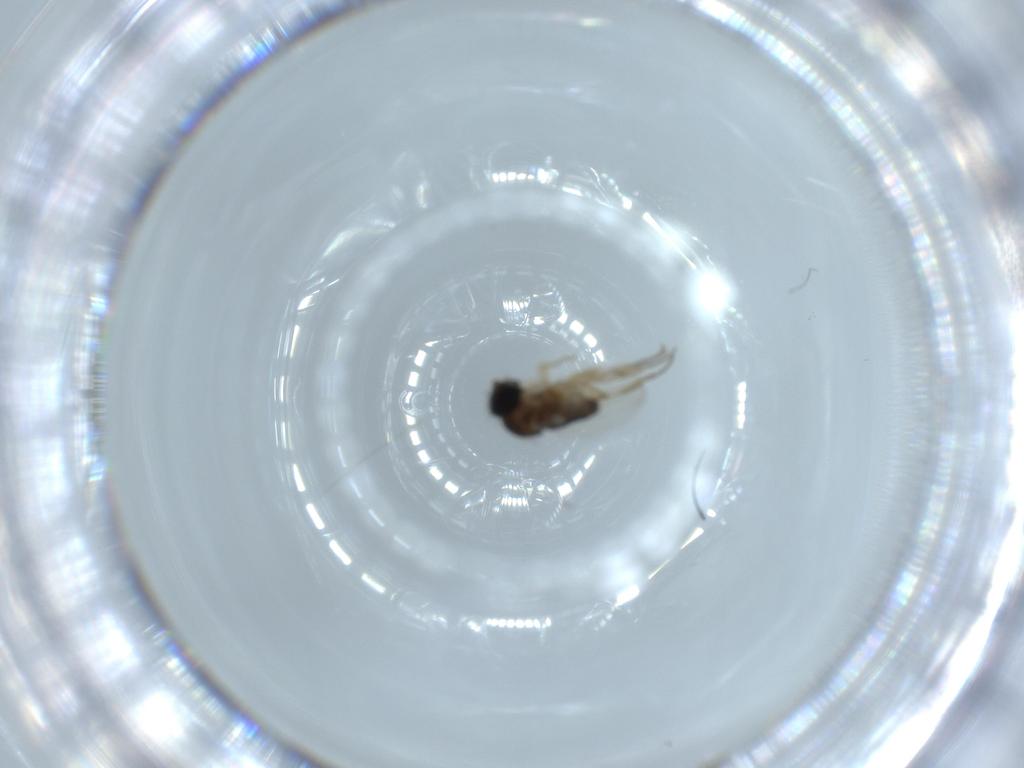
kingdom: Animalia
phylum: Arthropoda
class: Insecta
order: Diptera
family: Phoridae
